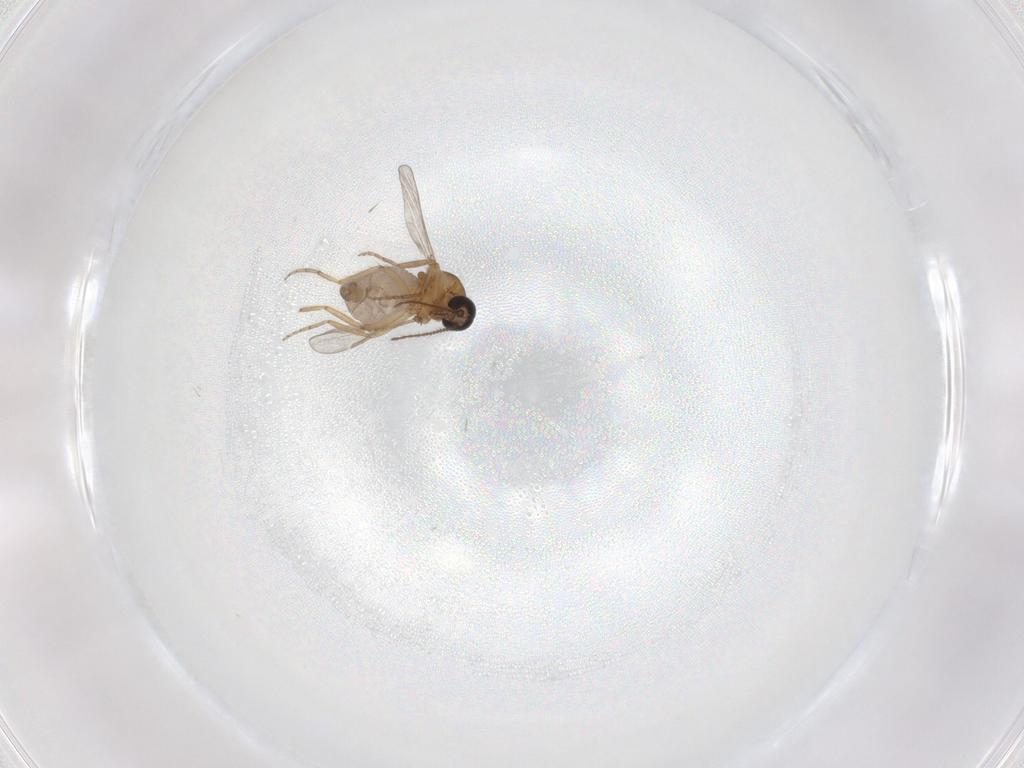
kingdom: Animalia
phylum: Arthropoda
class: Insecta
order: Diptera
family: Ceratopogonidae
